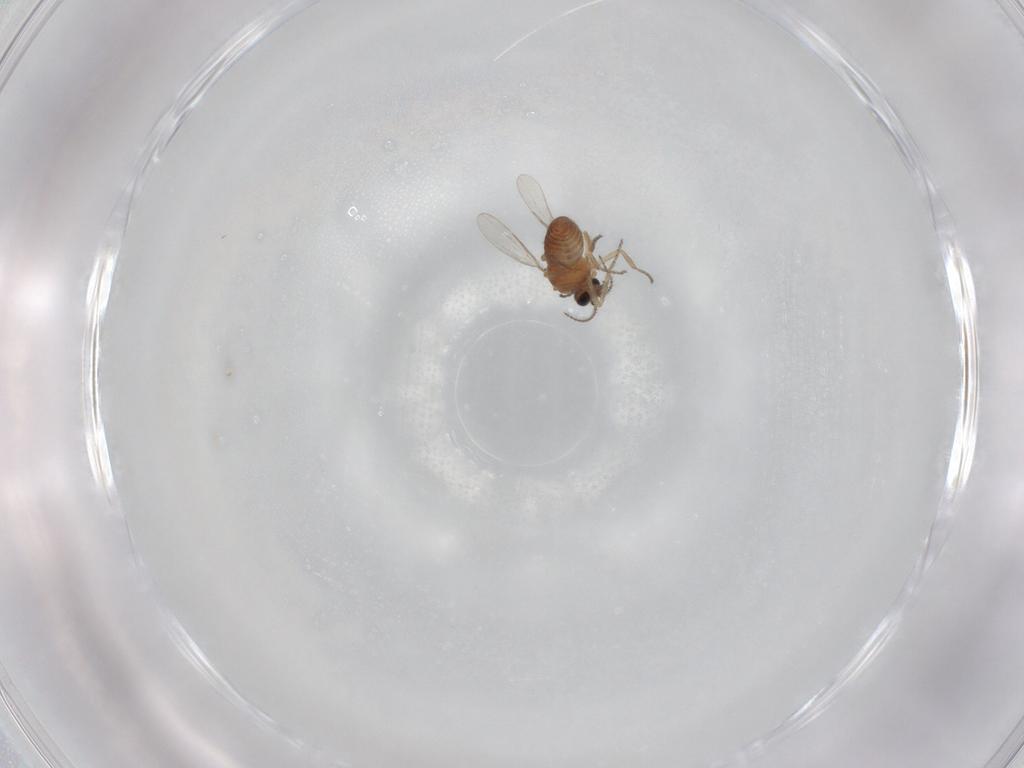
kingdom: Animalia
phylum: Arthropoda
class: Insecta
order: Diptera
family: Ceratopogonidae
